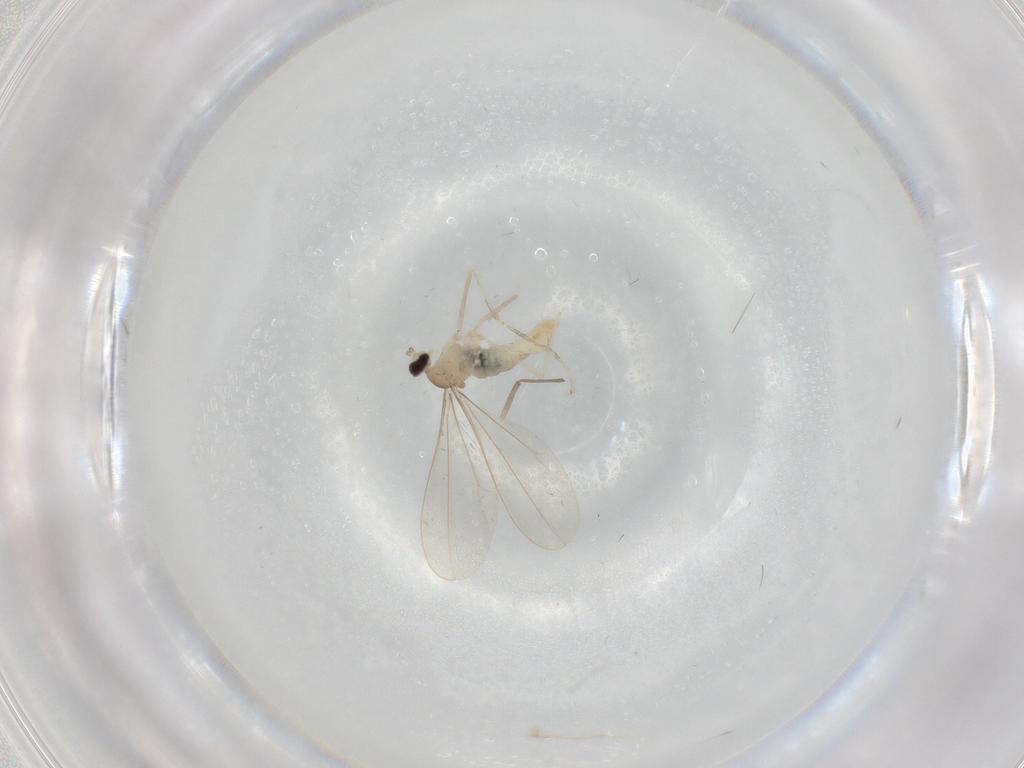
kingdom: Animalia
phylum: Arthropoda
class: Insecta
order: Diptera
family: Cecidomyiidae
